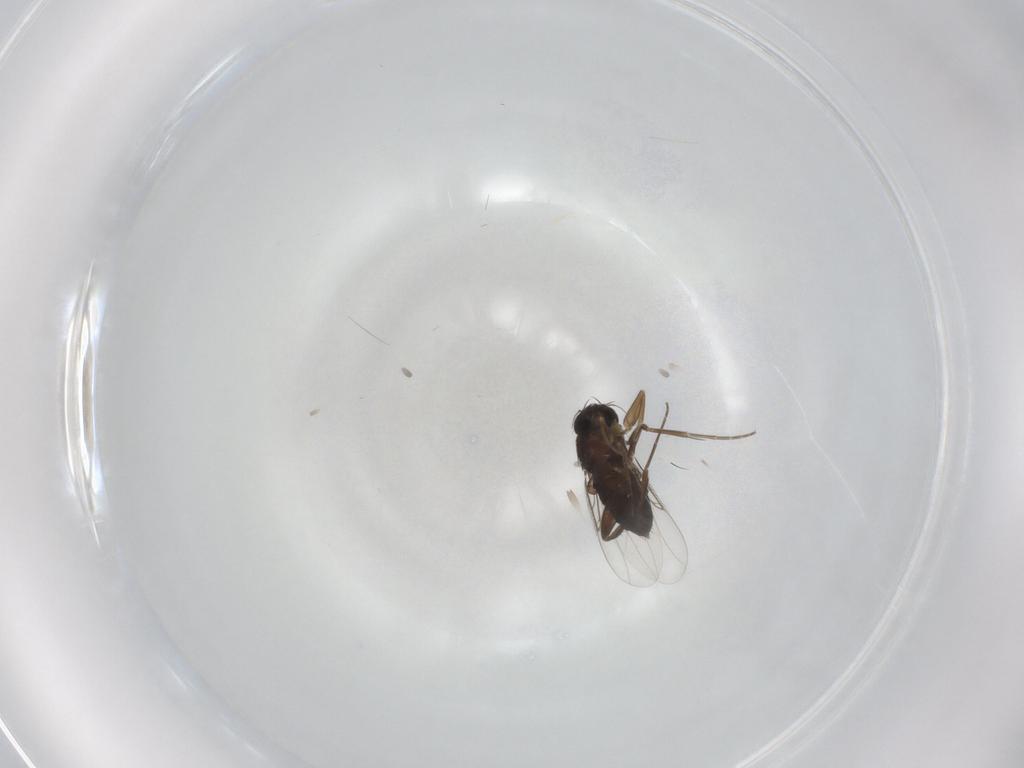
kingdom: Animalia
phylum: Arthropoda
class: Insecta
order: Diptera
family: Phoridae
